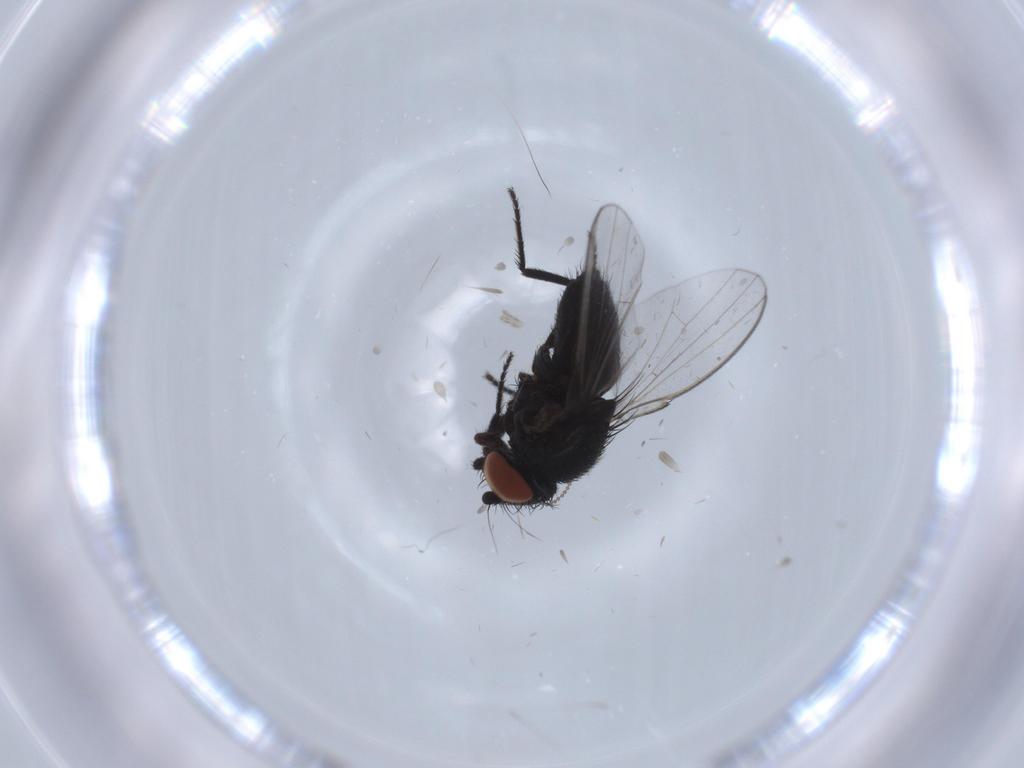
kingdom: Animalia
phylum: Arthropoda
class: Insecta
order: Diptera
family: Milichiidae
